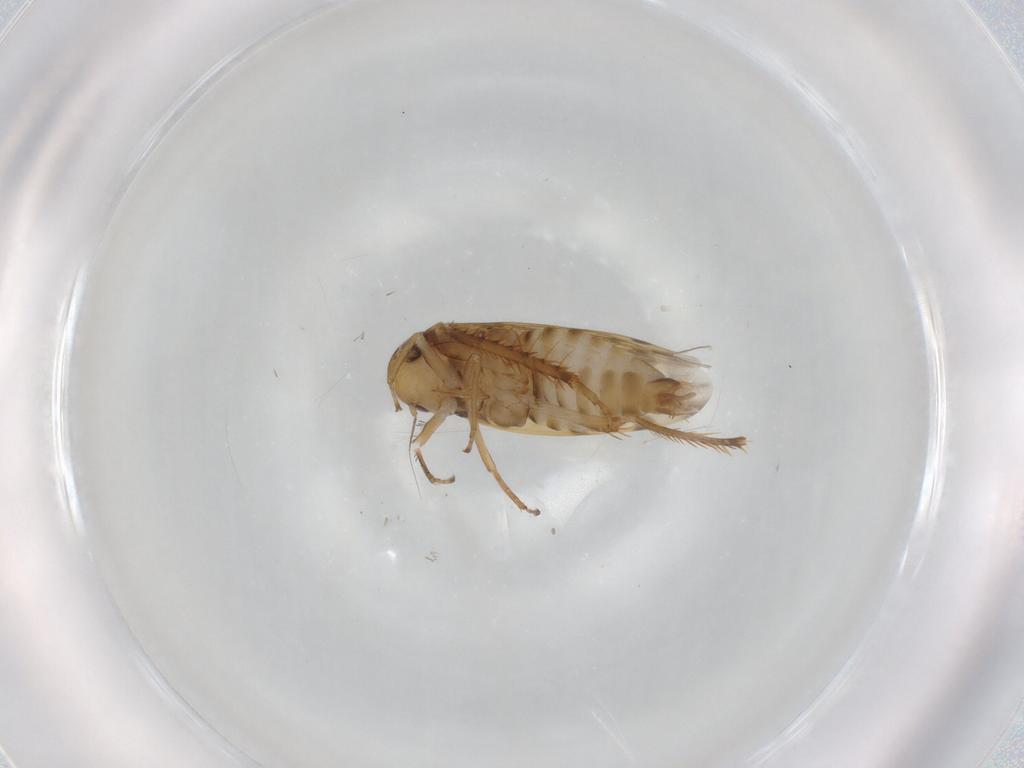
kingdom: Animalia
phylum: Arthropoda
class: Insecta
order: Hemiptera
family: Cicadellidae
